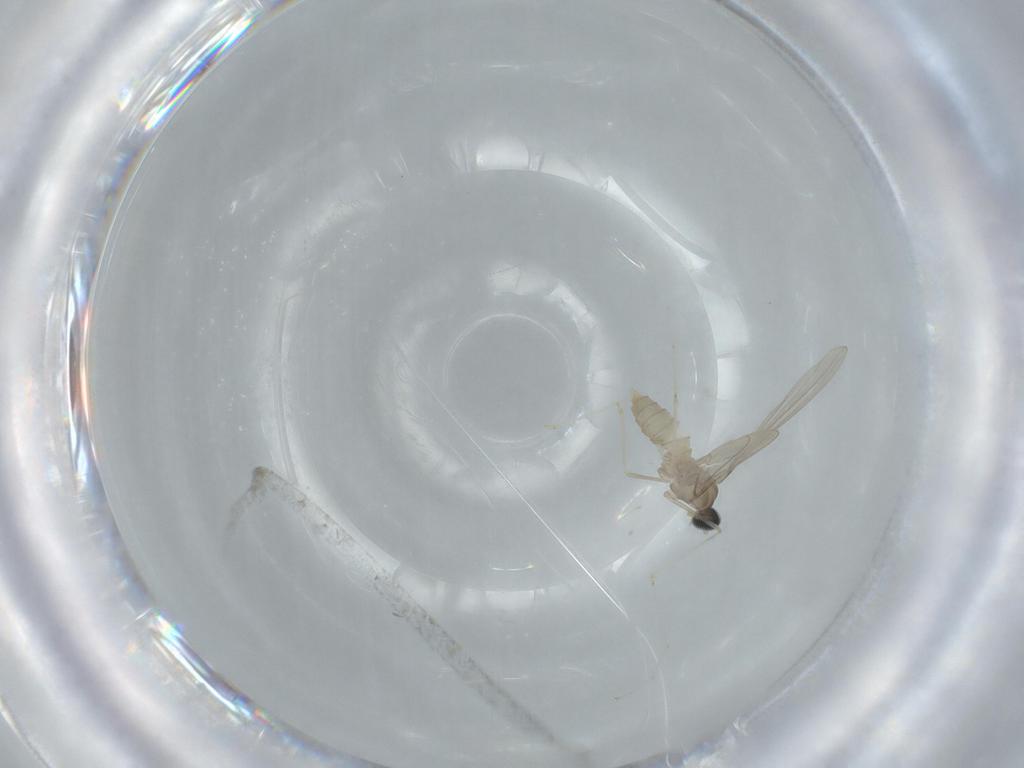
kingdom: Animalia
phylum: Arthropoda
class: Insecta
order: Diptera
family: Cecidomyiidae
